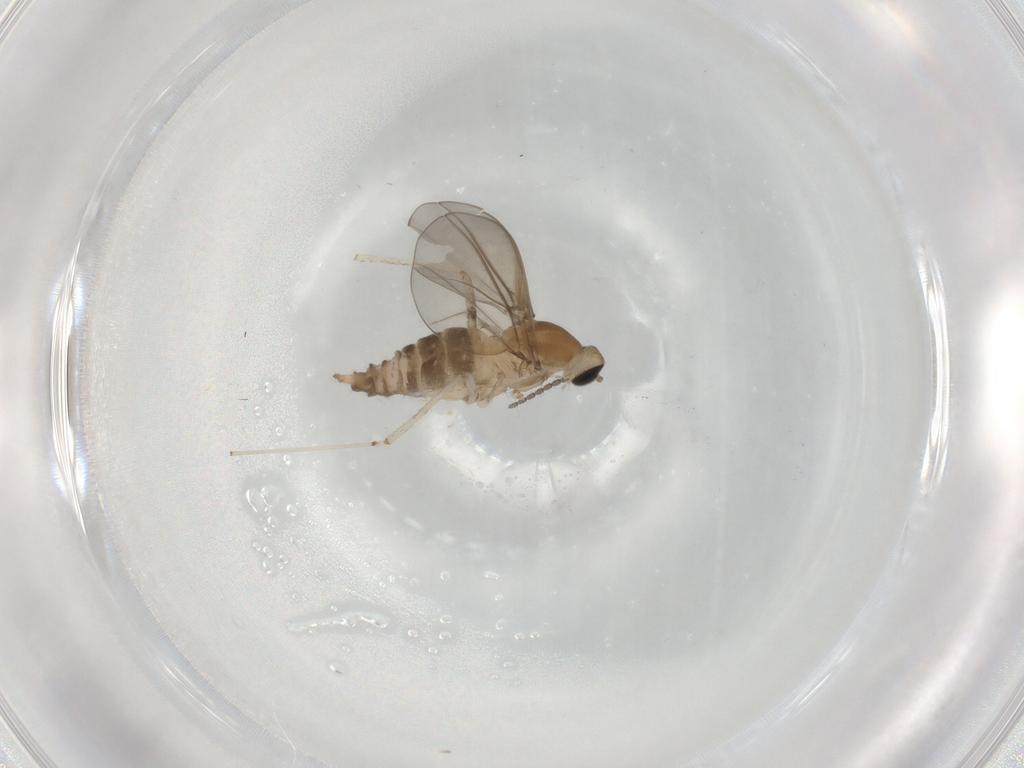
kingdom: Animalia
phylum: Arthropoda
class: Insecta
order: Diptera
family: Cecidomyiidae
